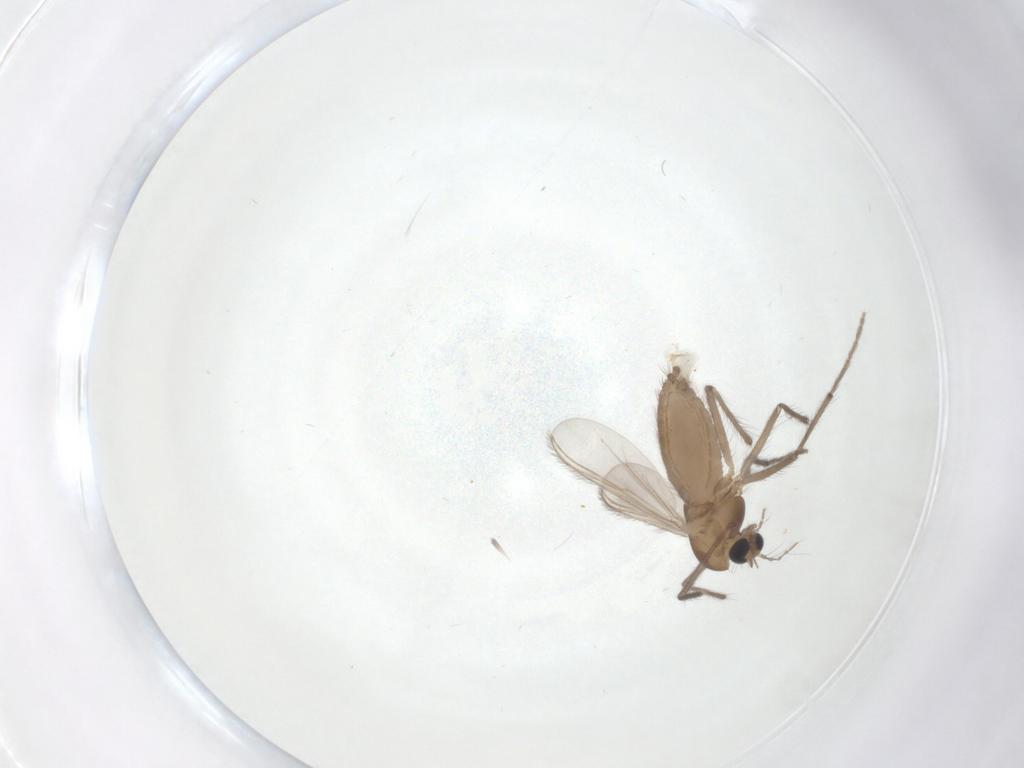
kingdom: Animalia
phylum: Arthropoda
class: Insecta
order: Diptera
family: Chironomidae
